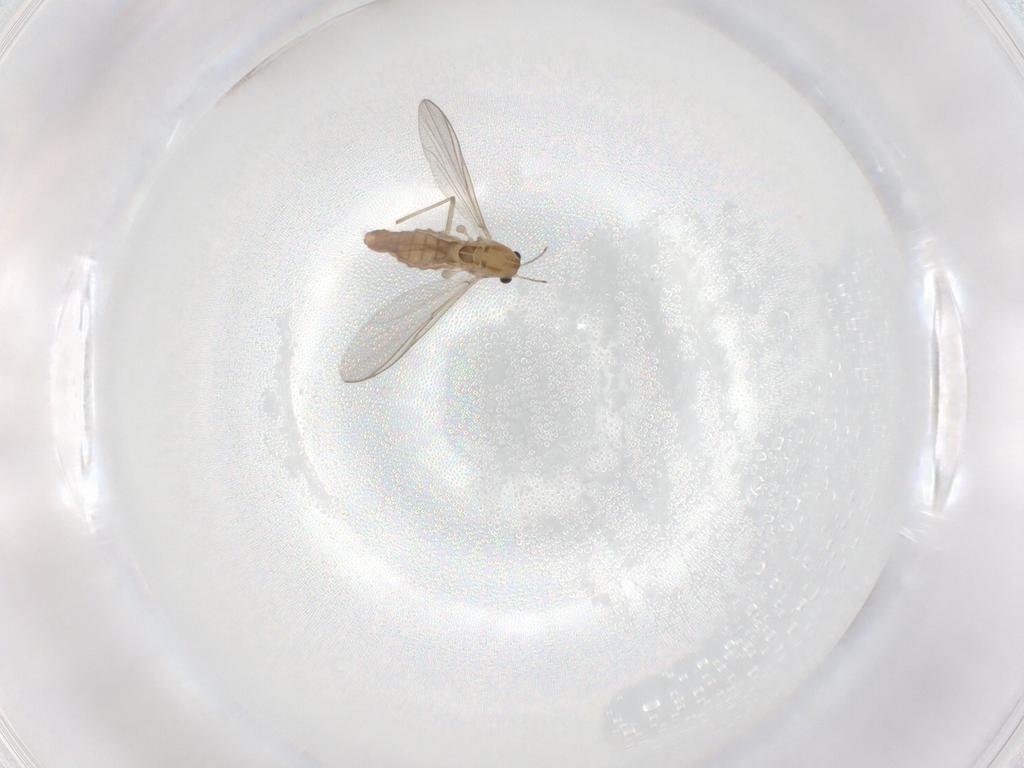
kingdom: Animalia
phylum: Arthropoda
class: Insecta
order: Diptera
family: Chironomidae
